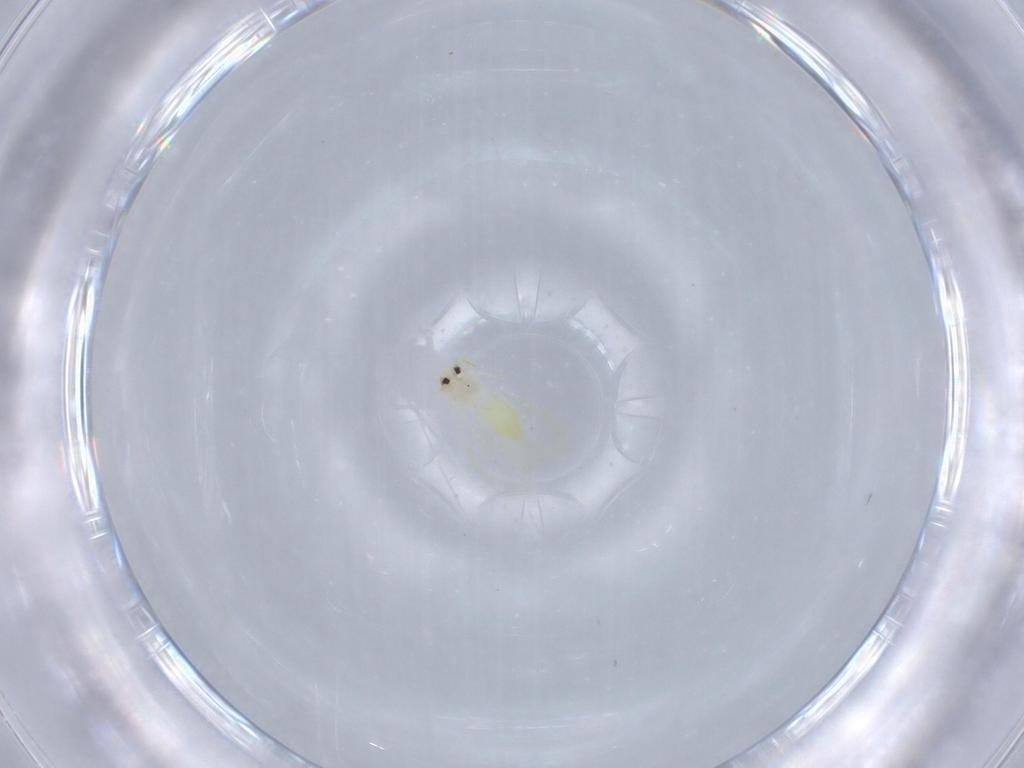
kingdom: Animalia
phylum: Arthropoda
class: Insecta
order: Hemiptera
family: Aleyrodidae
